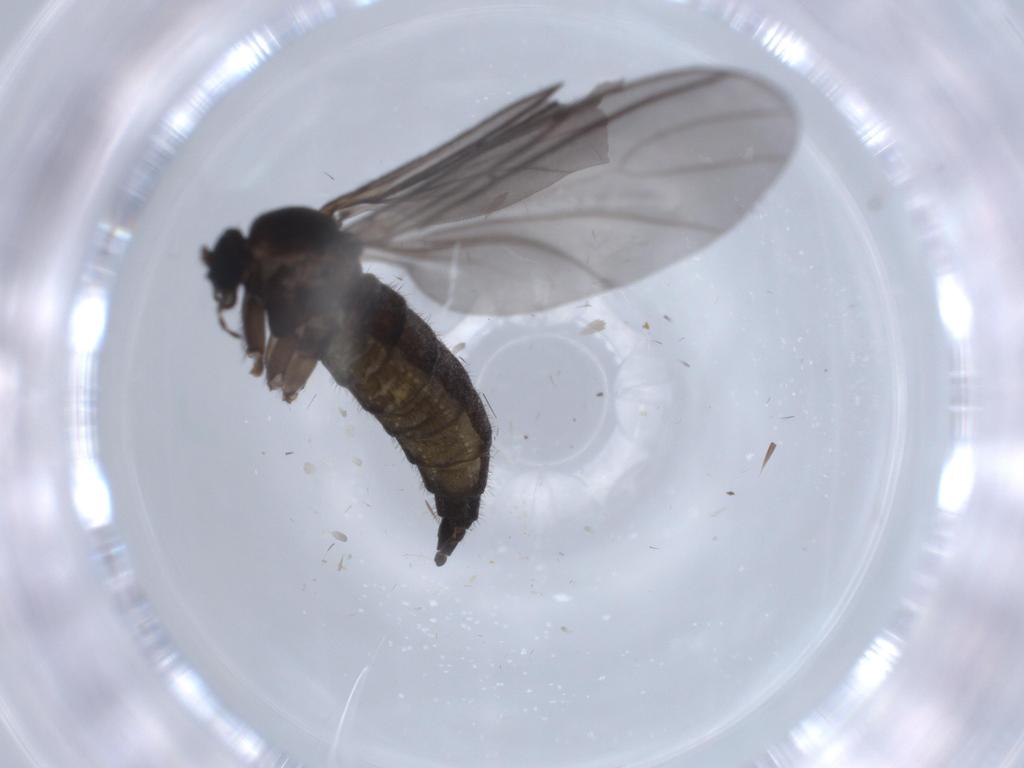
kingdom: Animalia
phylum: Arthropoda
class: Insecta
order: Diptera
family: Sciaridae
